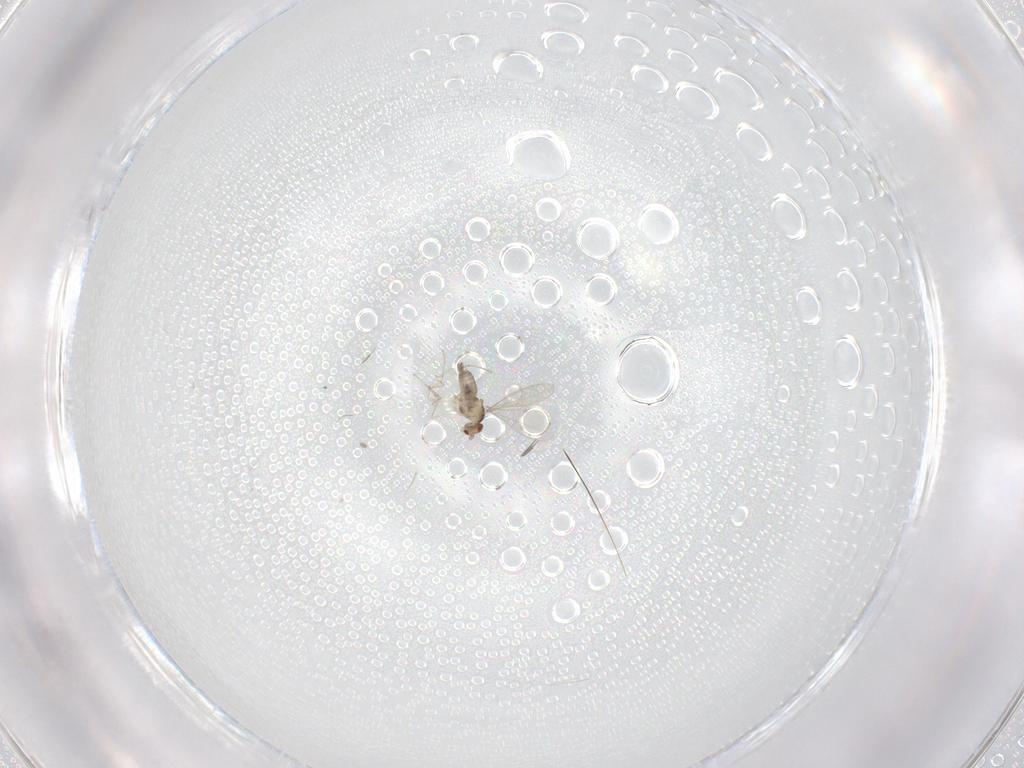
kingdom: Animalia
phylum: Arthropoda
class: Insecta
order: Diptera
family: Cecidomyiidae
